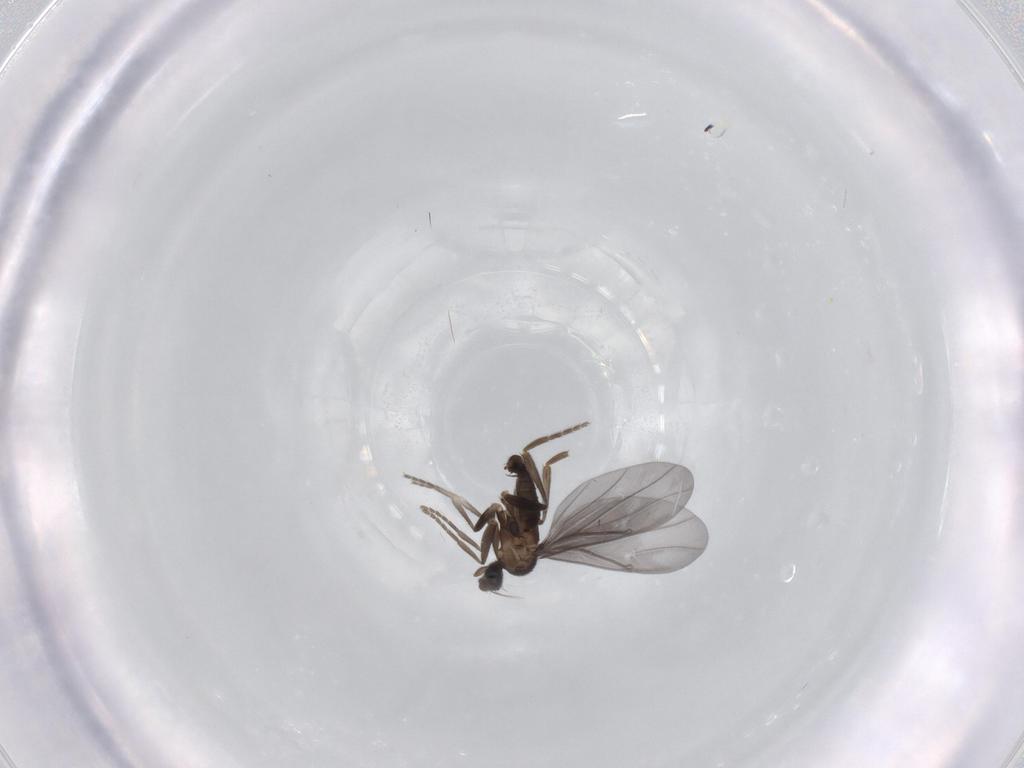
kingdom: Animalia
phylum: Arthropoda
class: Insecta
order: Diptera
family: Phoridae
